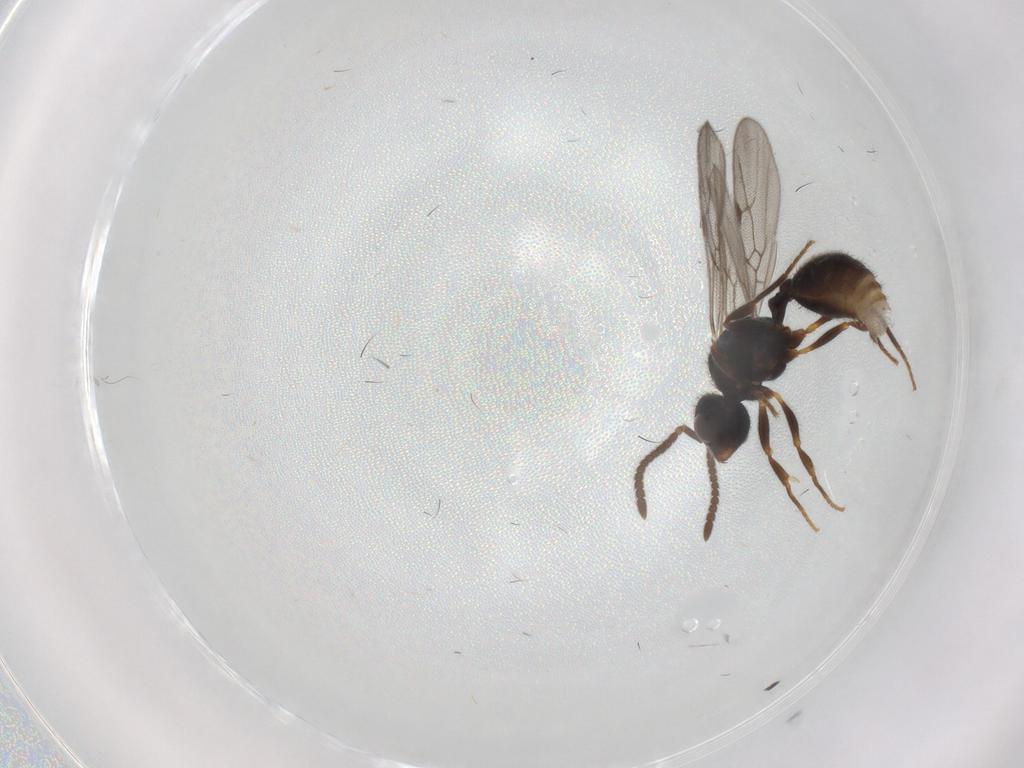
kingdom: Animalia
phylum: Arthropoda
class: Insecta
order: Hymenoptera
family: Formicidae
